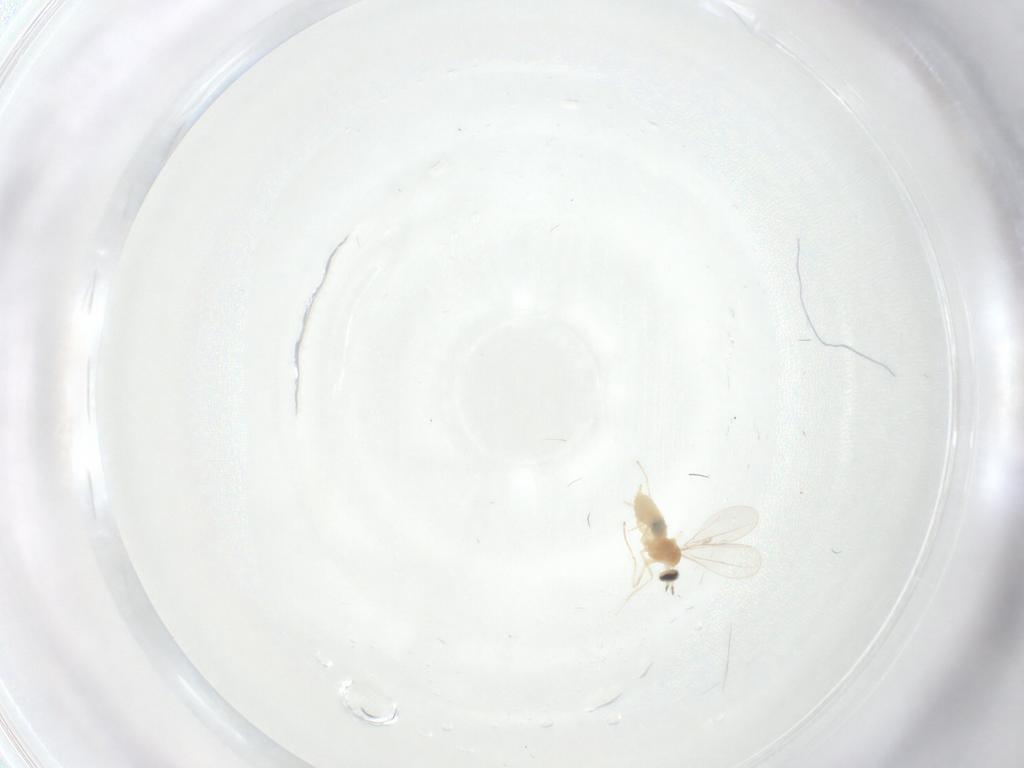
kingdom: Animalia
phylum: Arthropoda
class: Insecta
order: Diptera
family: Cecidomyiidae
